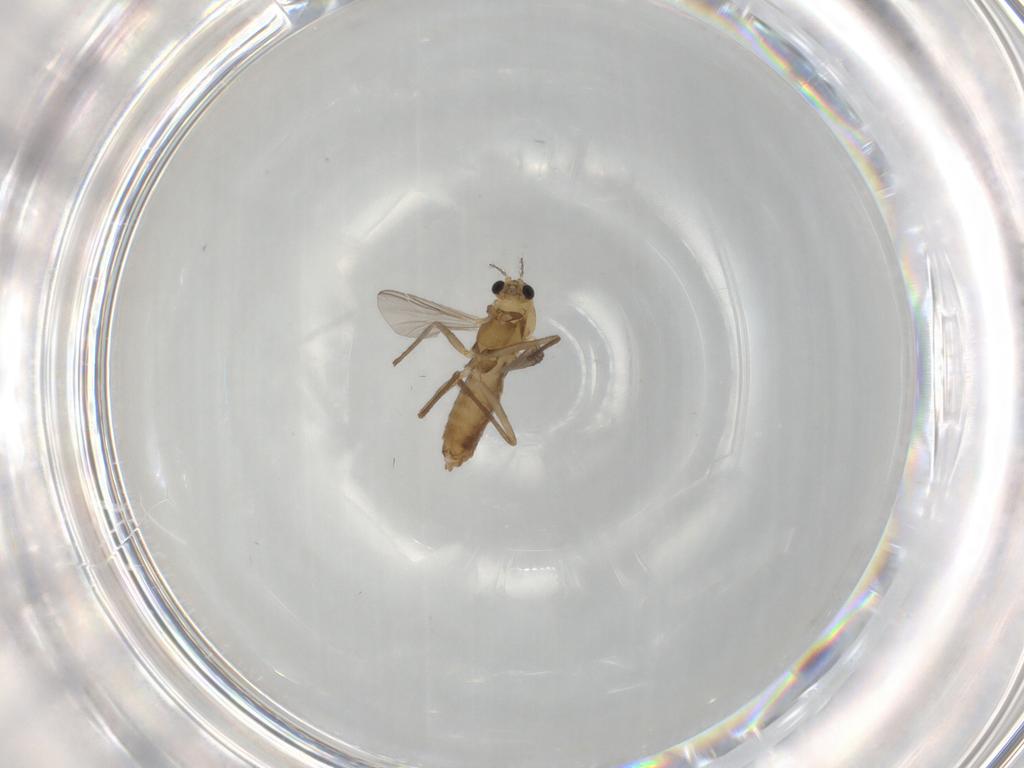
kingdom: Animalia
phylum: Arthropoda
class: Insecta
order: Diptera
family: Chironomidae
